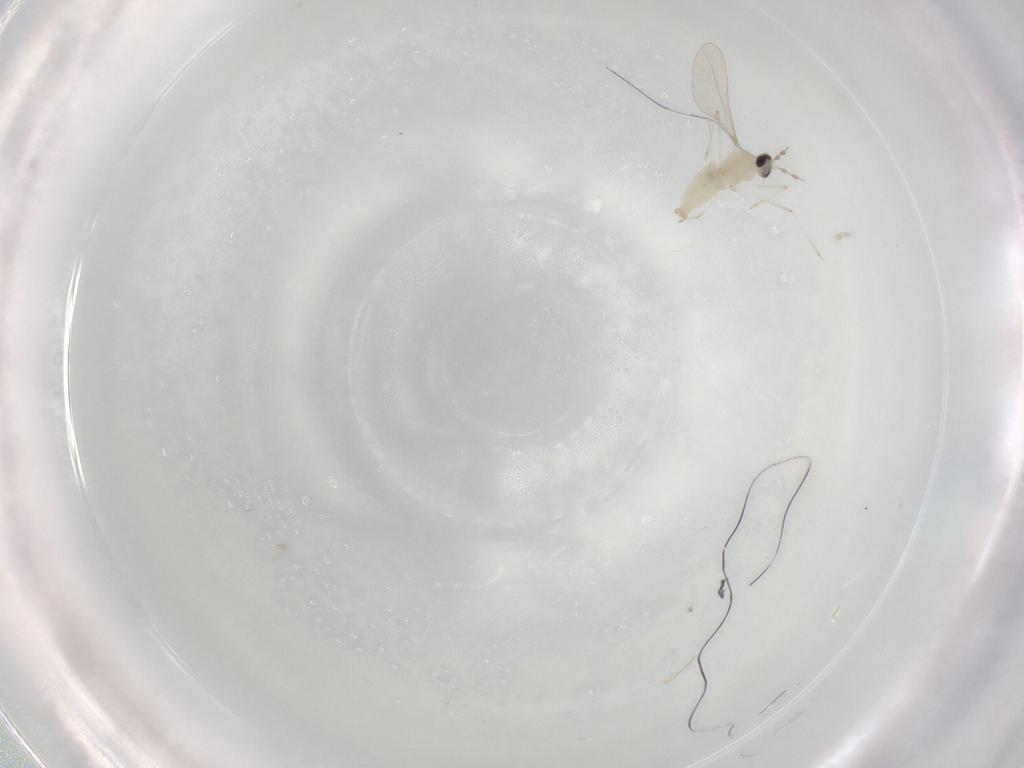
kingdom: Animalia
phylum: Arthropoda
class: Insecta
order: Diptera
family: Cecidomyiidae
